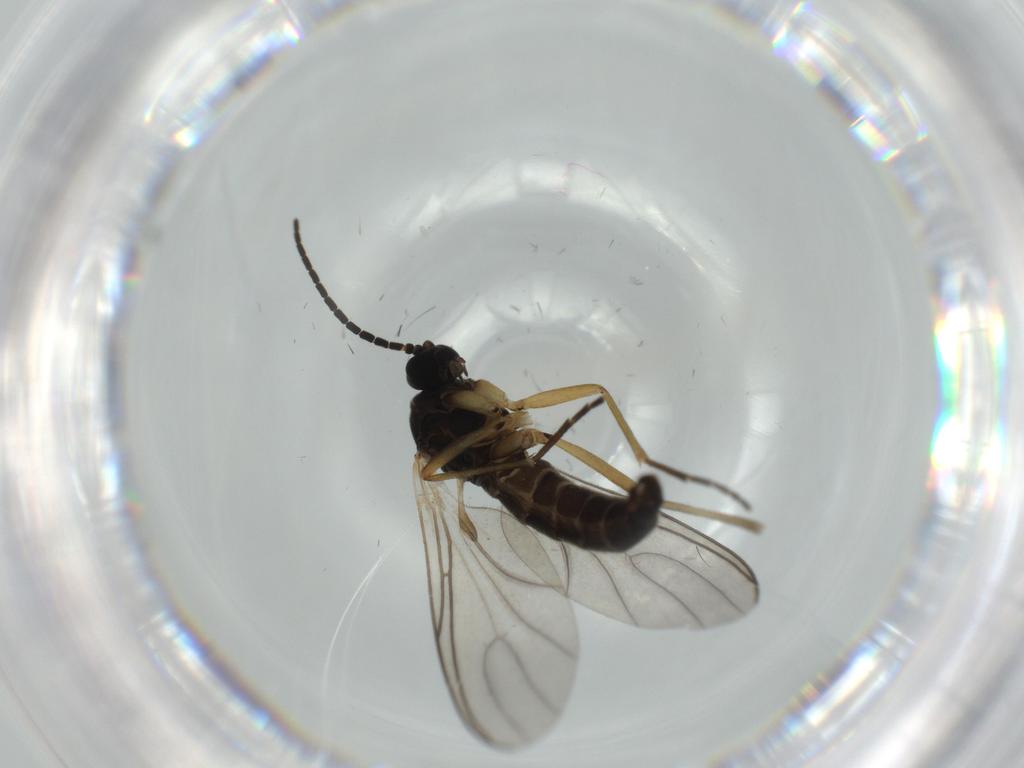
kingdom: Animalia
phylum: Arthropoda
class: Insecta
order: Diptera
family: Sciaridae
